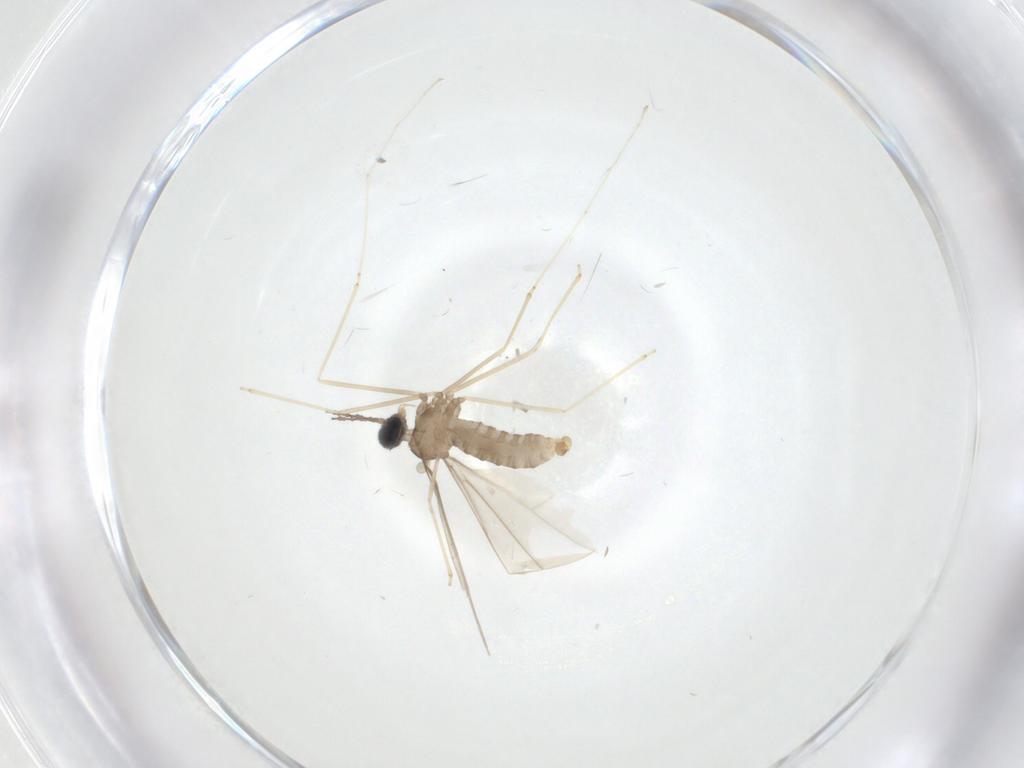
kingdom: Animalia
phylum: Arthropoda
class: Insecta
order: Diptera
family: Cecidomyiidae
